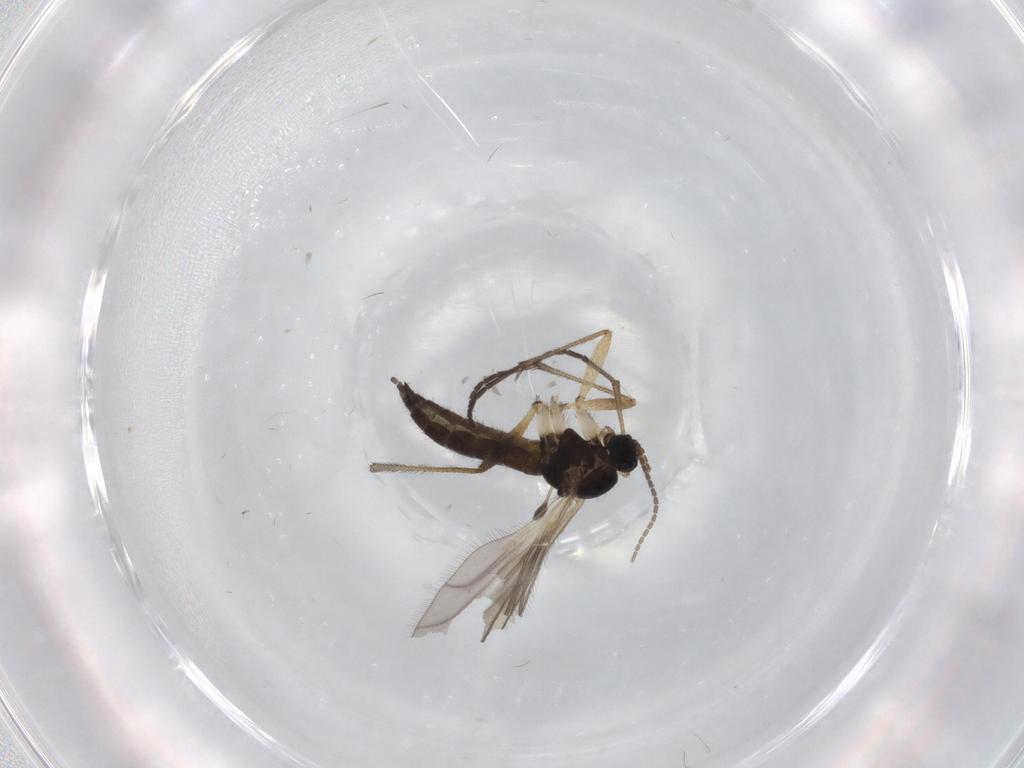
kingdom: Animalia
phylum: Arthropoda
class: Insecta
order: Diptera
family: Sciaridae
